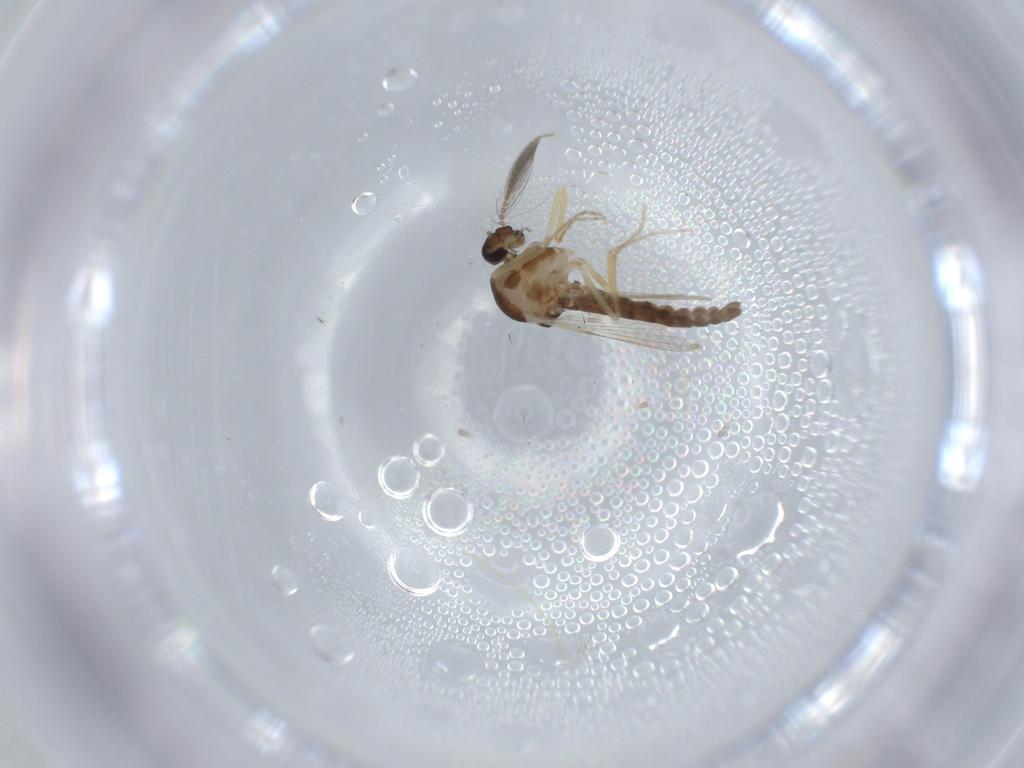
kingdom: Animalia
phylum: Arthropoda
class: Insecta
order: Diptera
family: Ceratopogonidae
